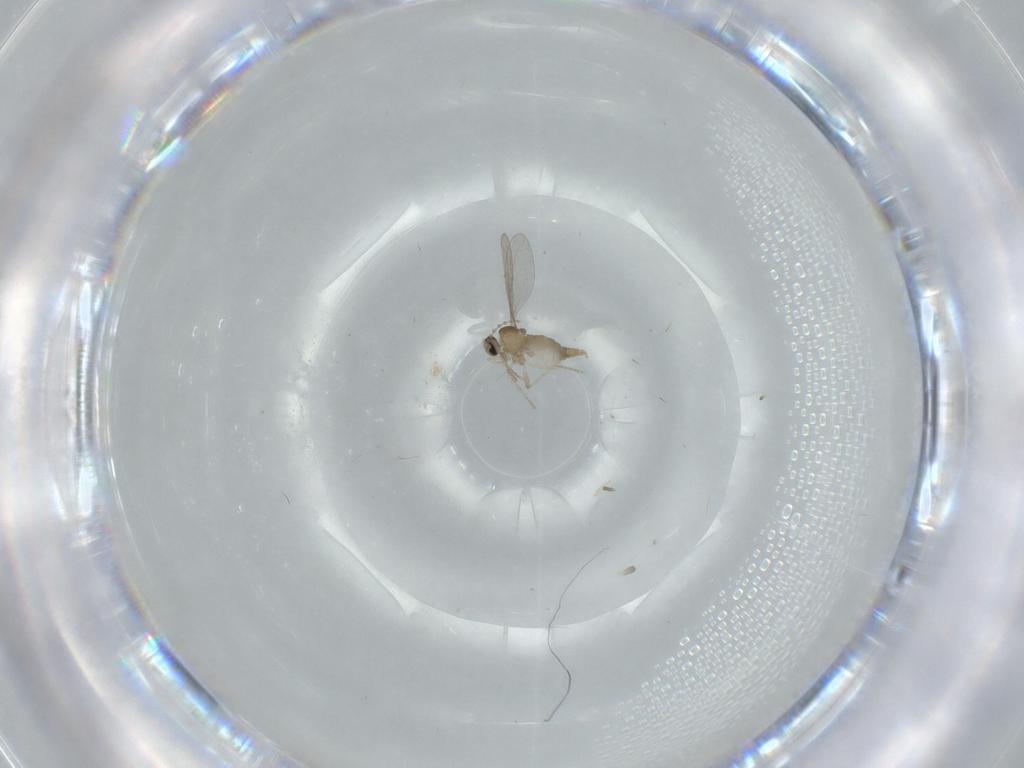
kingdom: Animalia
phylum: Arthropoda
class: Insecta
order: Diptera
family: Cecidomyiidae
